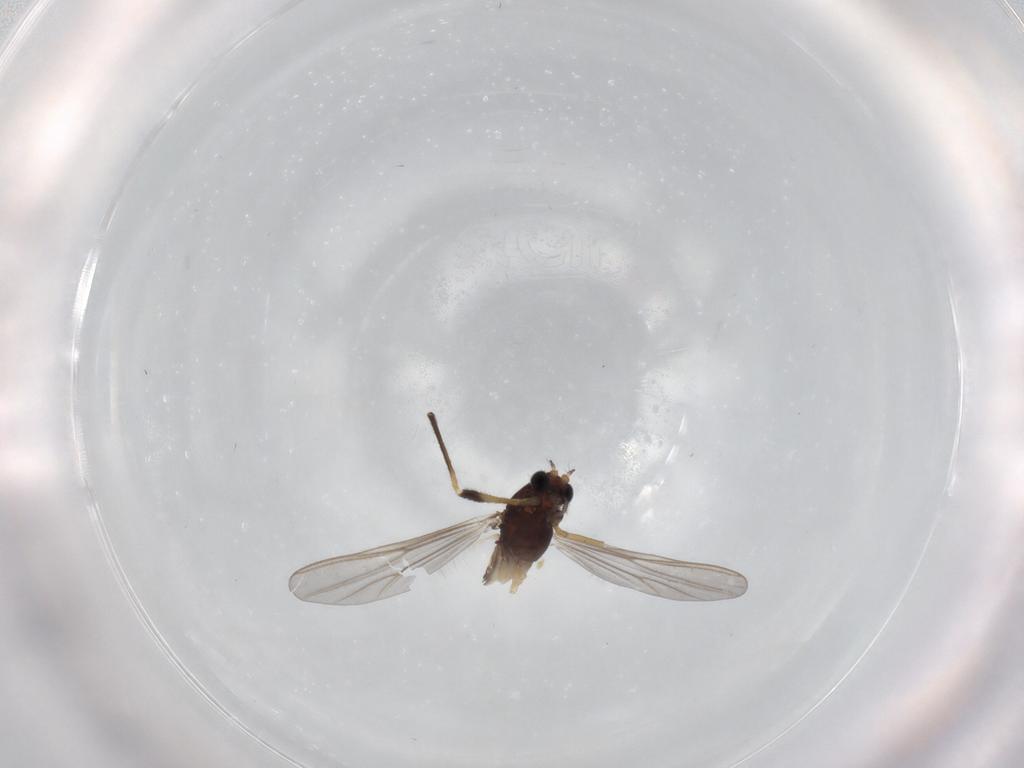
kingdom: Animalia
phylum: Arthropoda
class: Insecta
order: Diptera
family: Chironomidae
